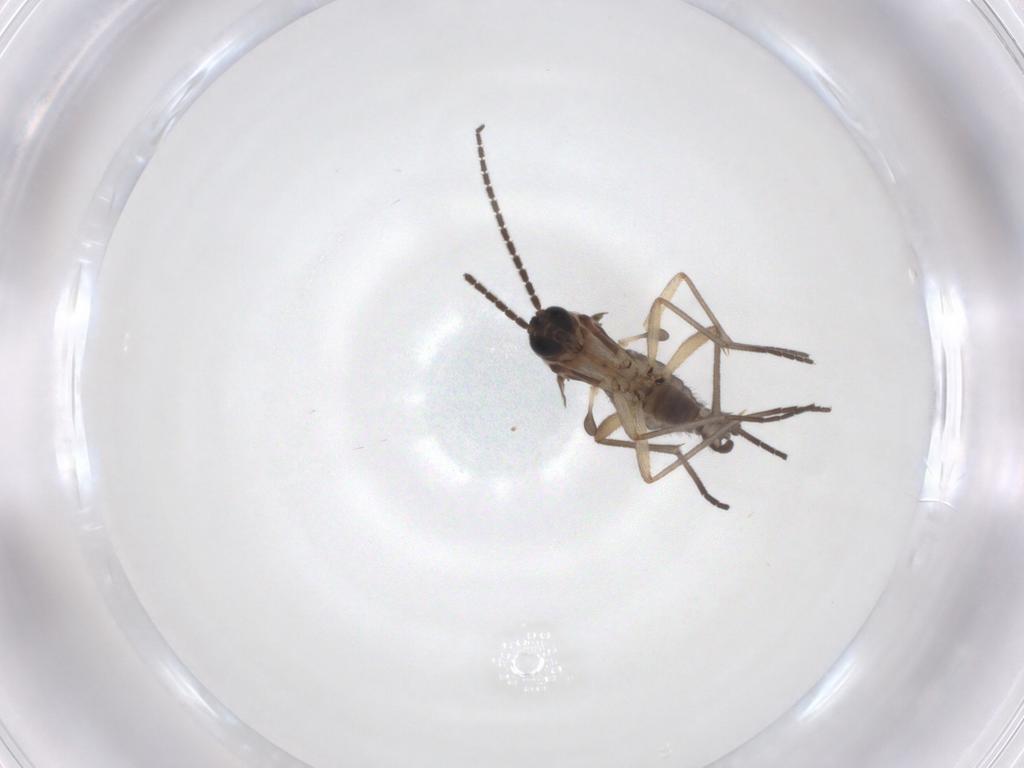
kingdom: Animalia
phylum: Arthropoda
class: Insecta
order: Diptera
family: Sciaridae
